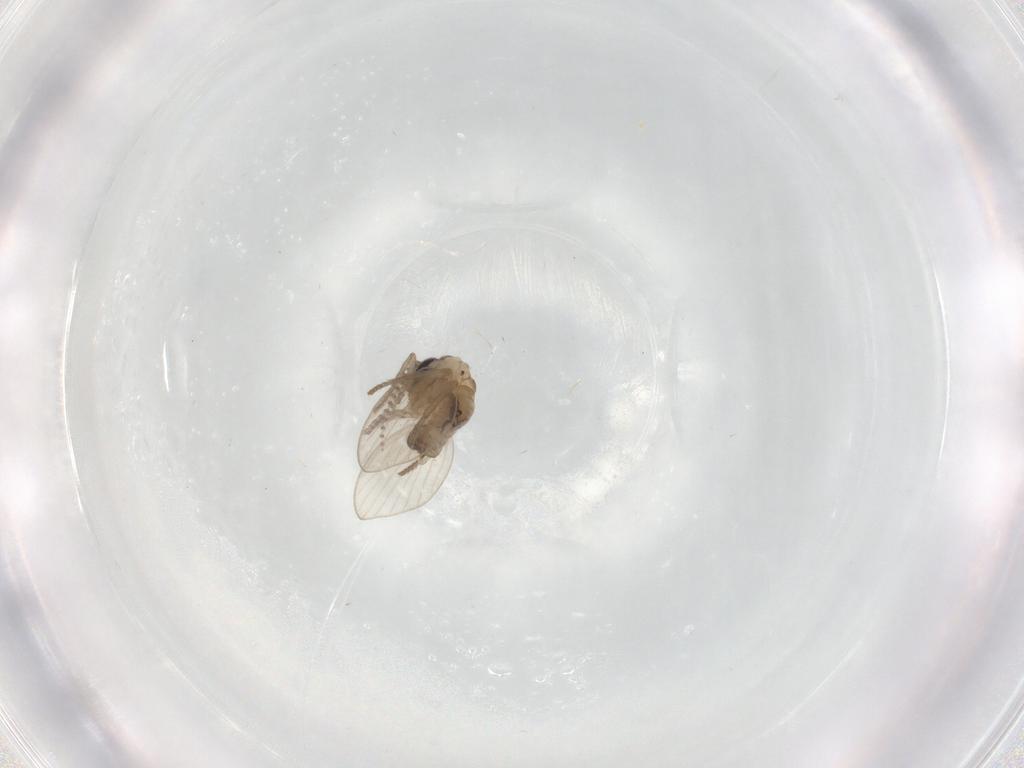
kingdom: Animalia
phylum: Arthropoda
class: Insecta
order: Diptera
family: Psychodidae
